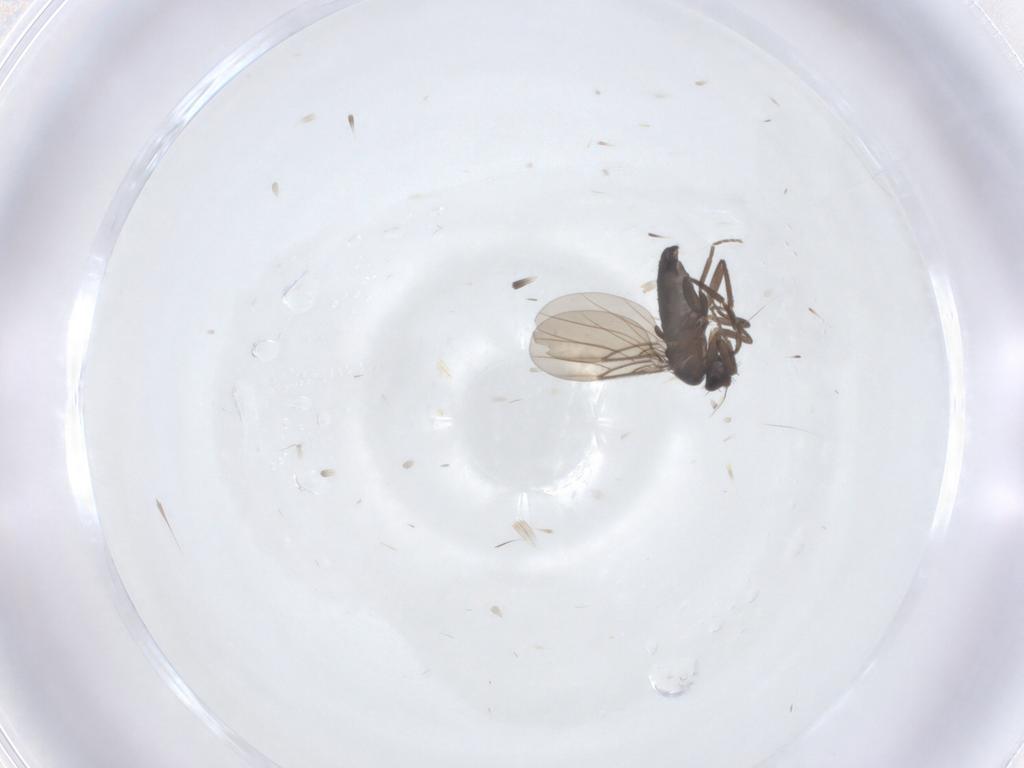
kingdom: Animalia
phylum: Arthropoda
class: Insecta
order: Diptera
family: Phoridae
